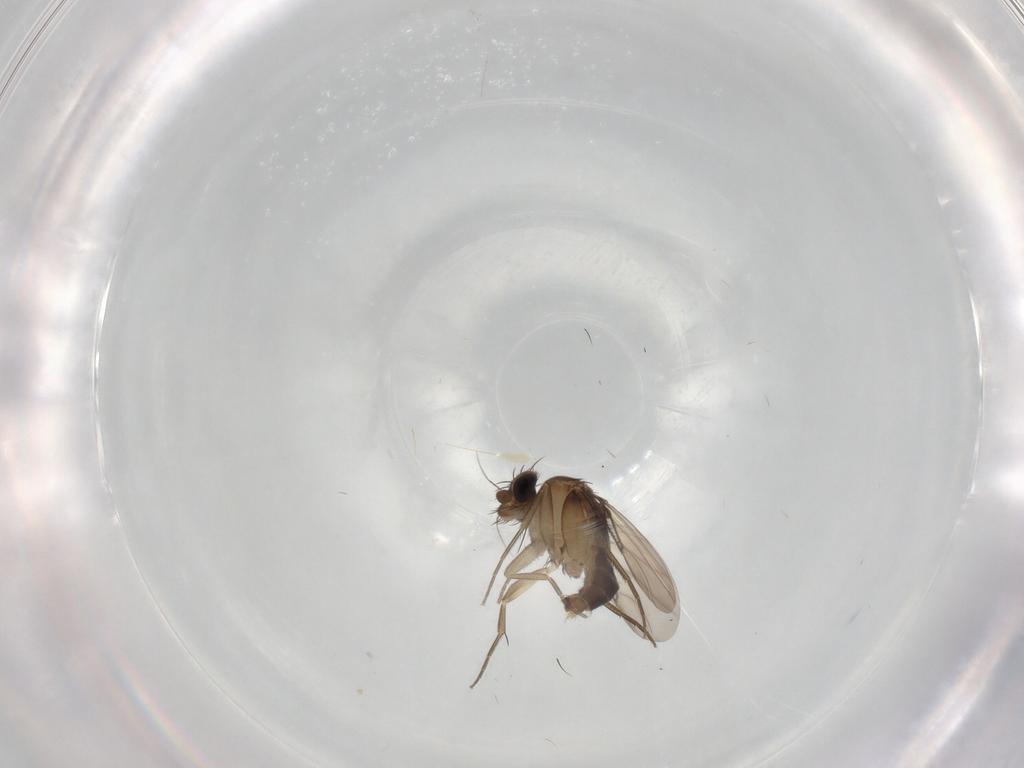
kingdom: Animalia
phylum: Arthropoda
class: Insecta
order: Diptera
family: Phoridae
